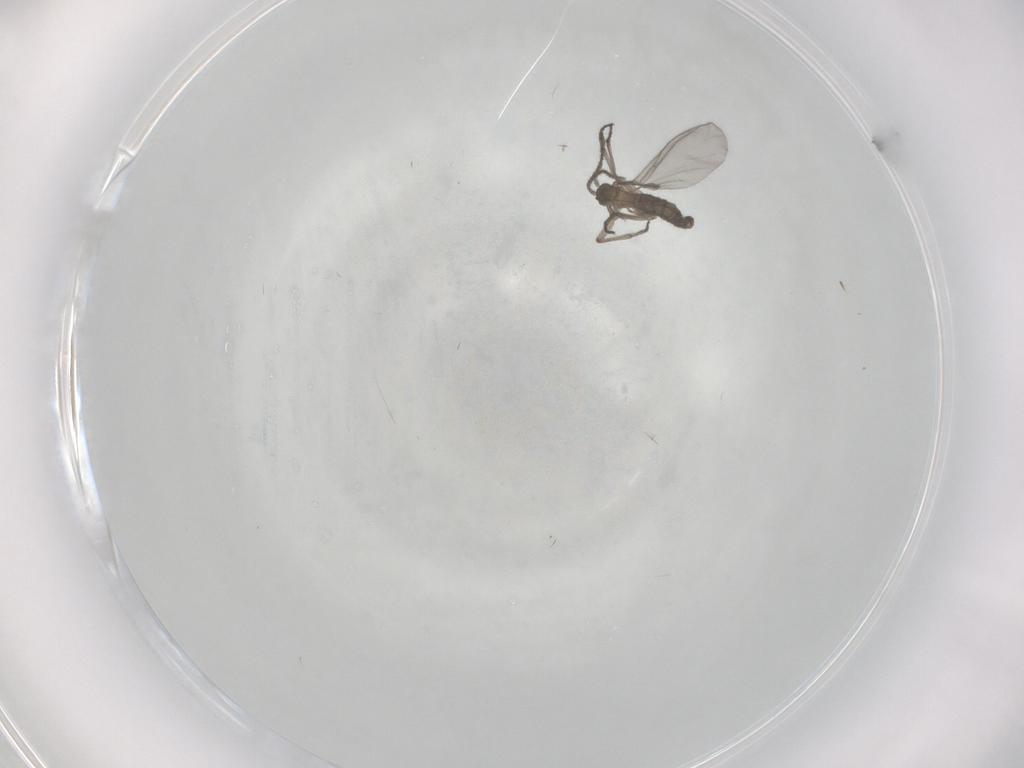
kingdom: Animalia
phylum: Arthropoda
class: Insecta
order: Diptera
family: Sciaridae
